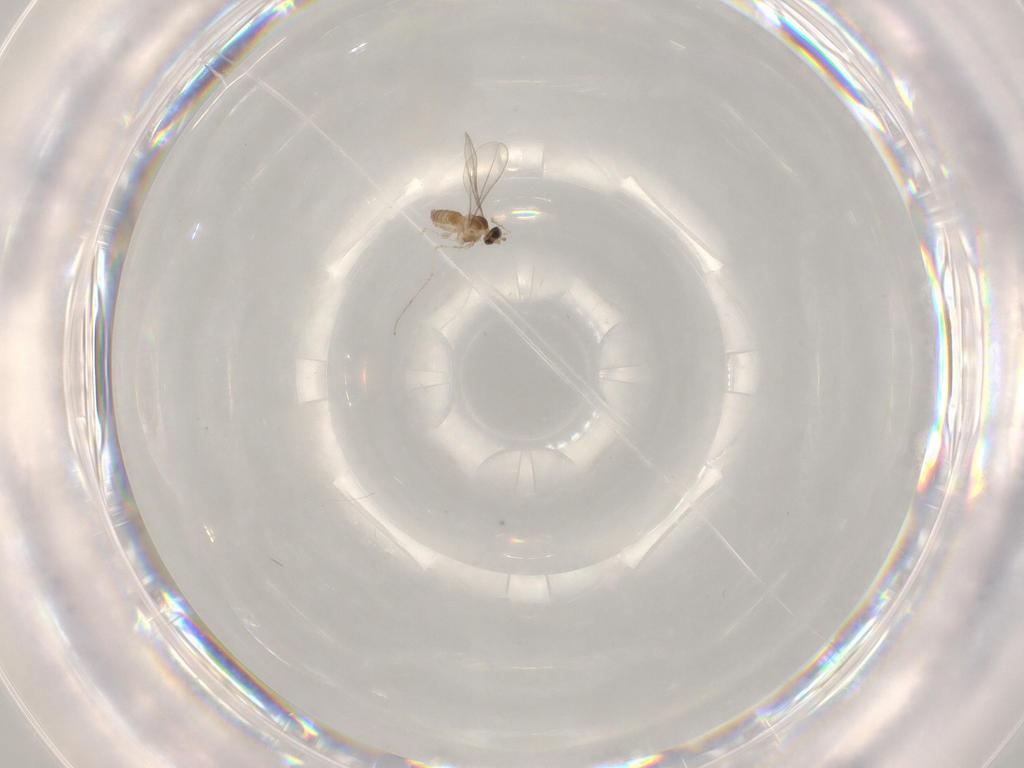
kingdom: Animalia
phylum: Arthropoda
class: Insecta
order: Diptera
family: Cecidomyiidae
